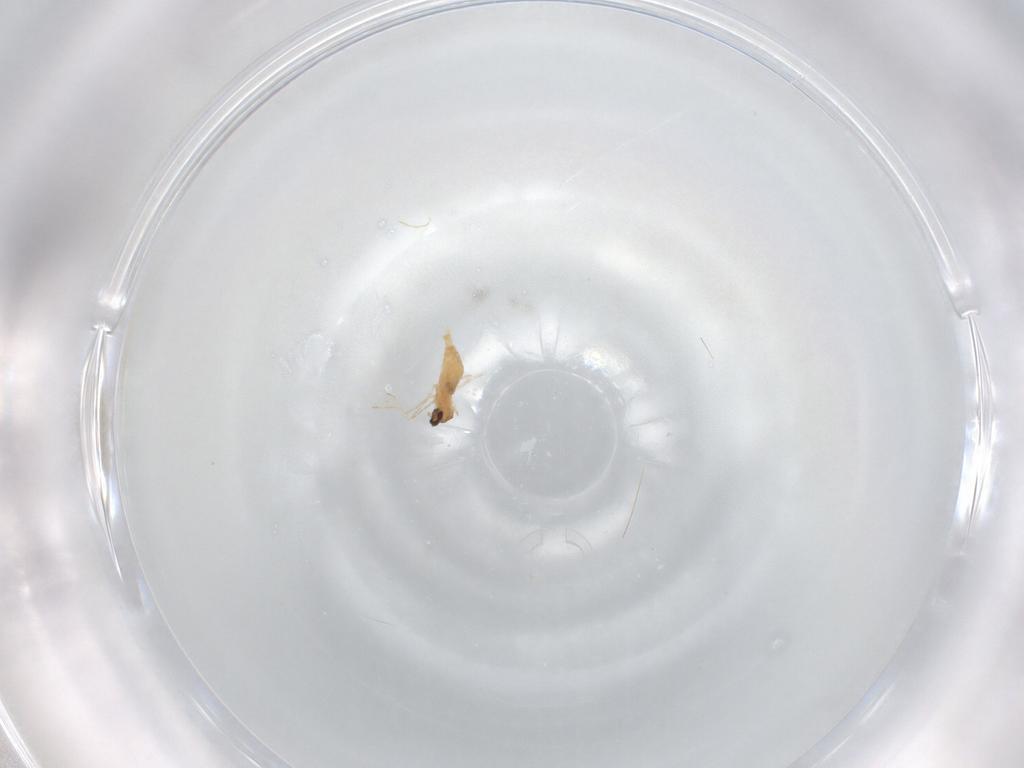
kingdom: Animalia
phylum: Arthropoda
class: Insecta
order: Diptera
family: Cecidomyiidae
